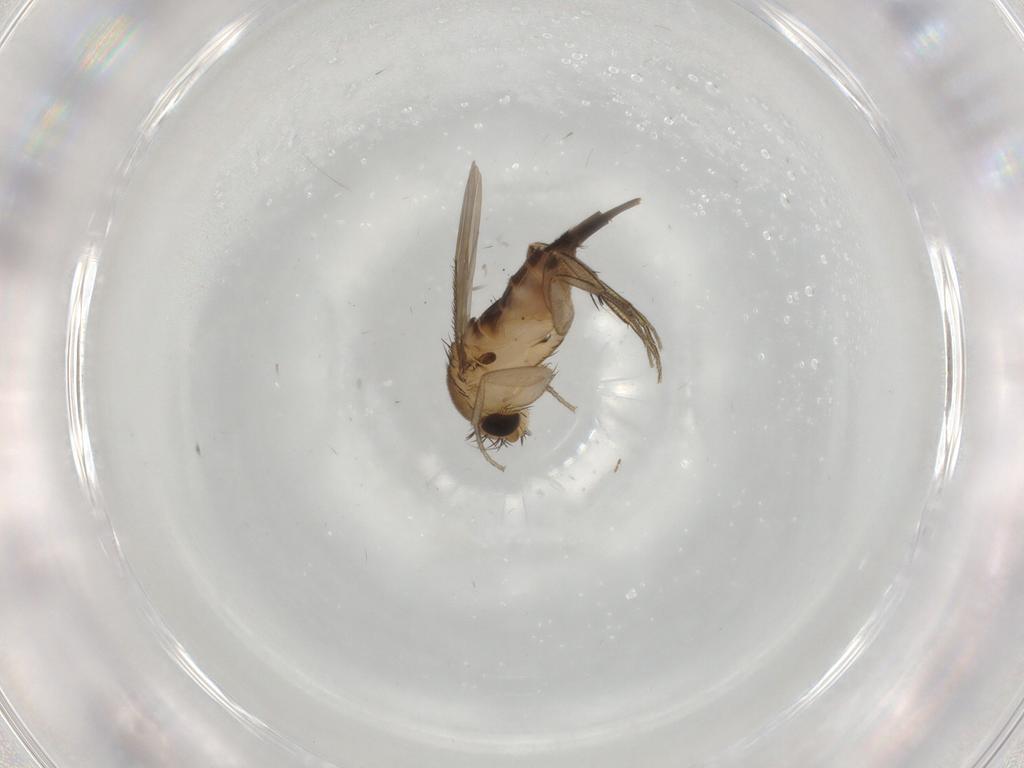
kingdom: Animalia
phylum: Arthropoda
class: Insecta
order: Diptera
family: Phoridae
